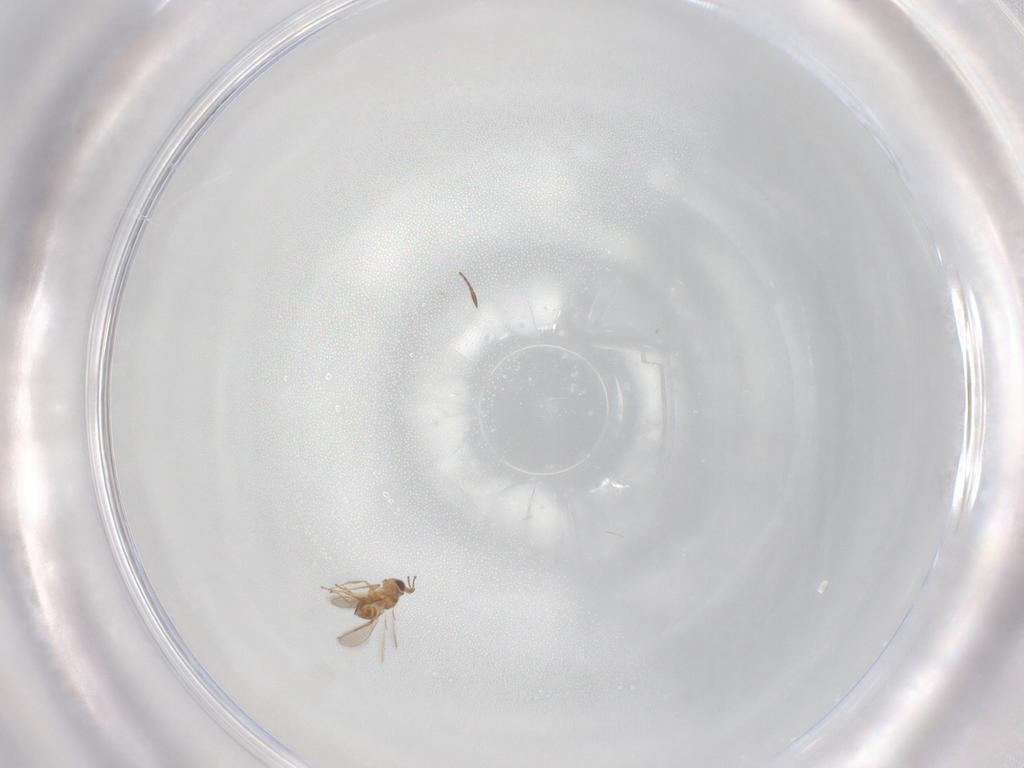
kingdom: Animalia
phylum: Arthropoda
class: Insecta
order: Hymenoptera
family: Mymaridae
